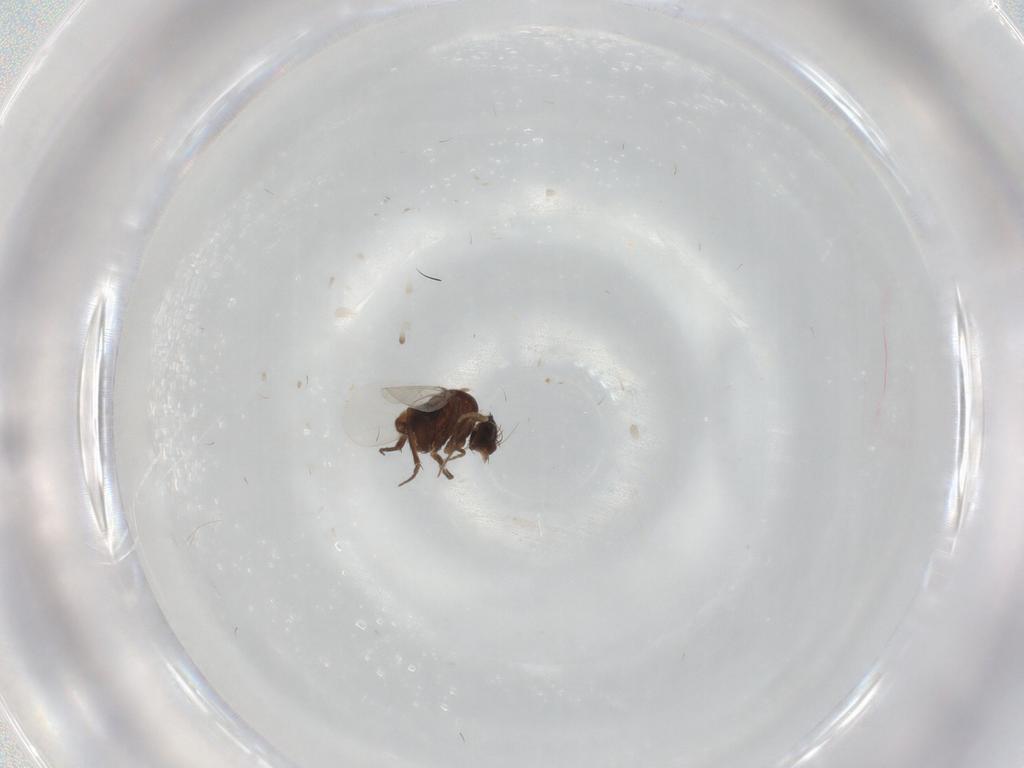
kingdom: Animalia
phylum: Arthropoda
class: Insecta
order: Diptera
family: Phoridae
